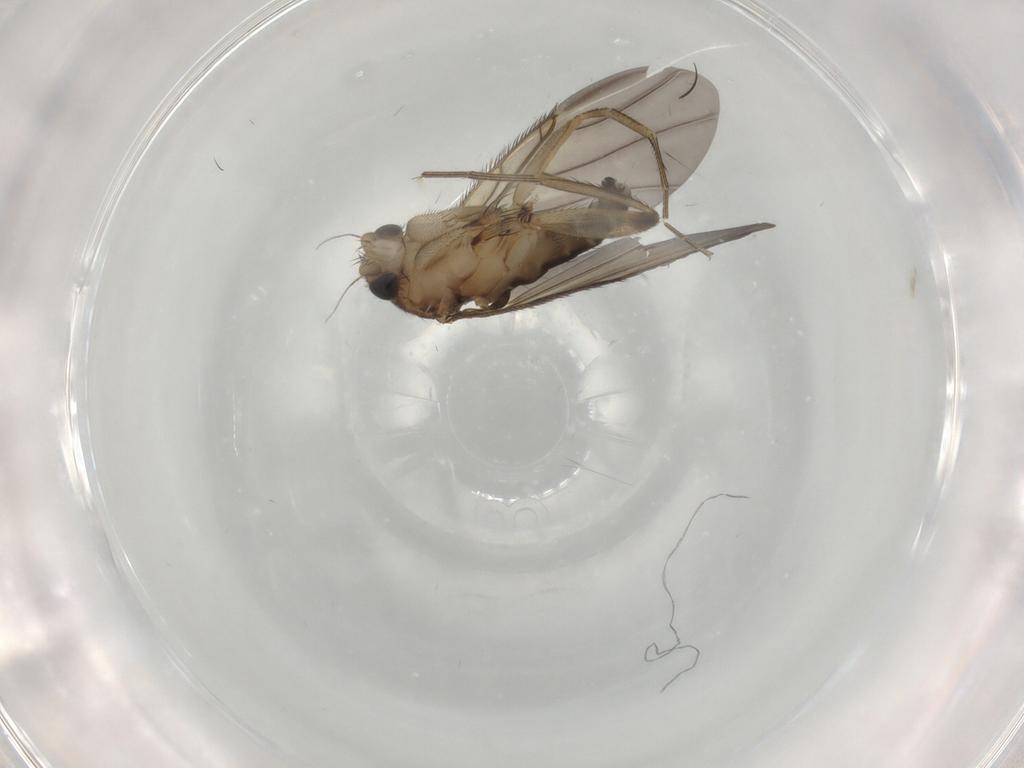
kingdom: Animalia
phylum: Arthropoda
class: Insecta
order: Diptera
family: Phoridae
